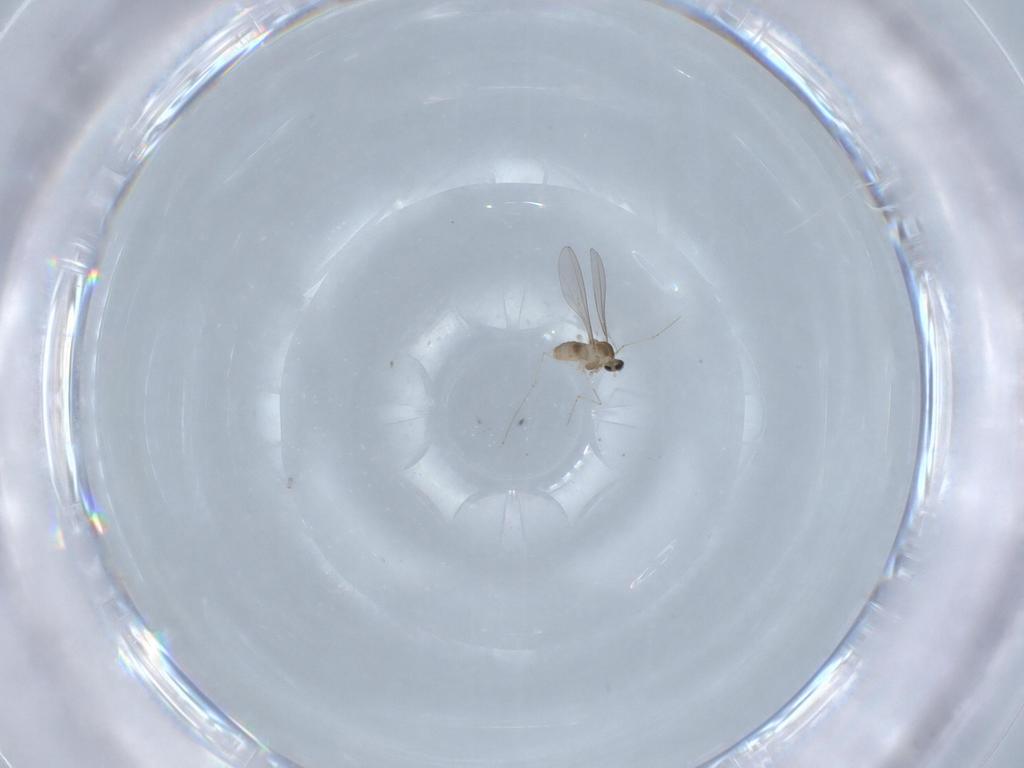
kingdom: Animalia
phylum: Arthropoda
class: Insecta
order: Diptera
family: Cecidomyiidae
